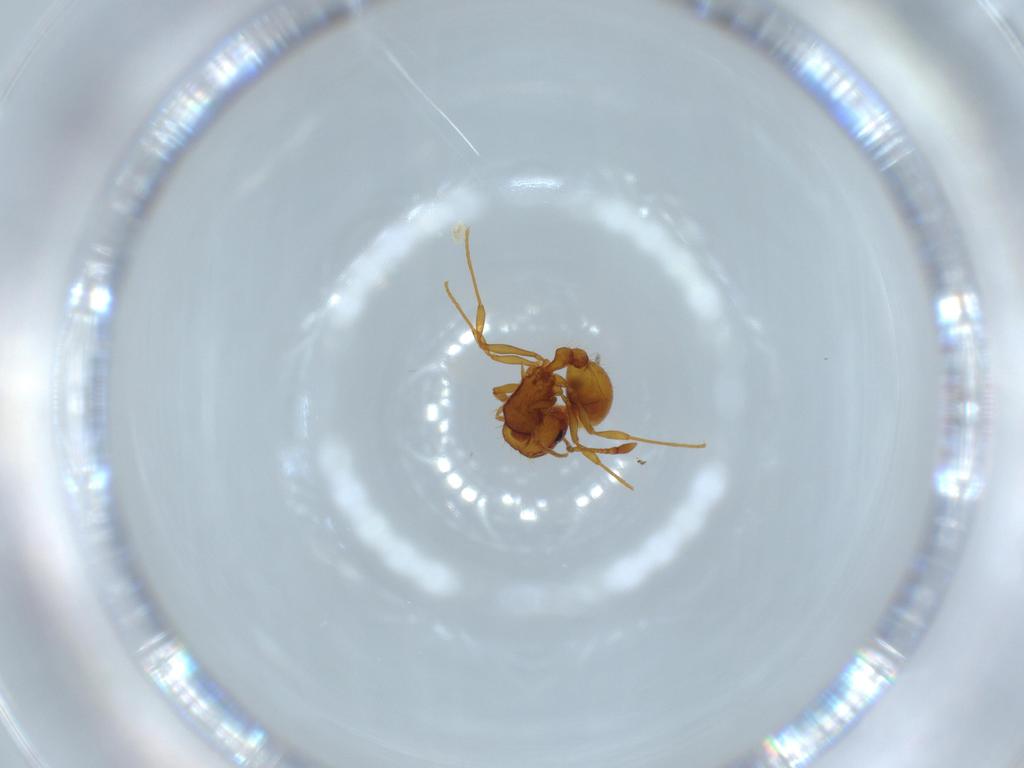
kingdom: Animalia
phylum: Arthropoda
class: Insecta
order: Hymenoptera
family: Formicidae
